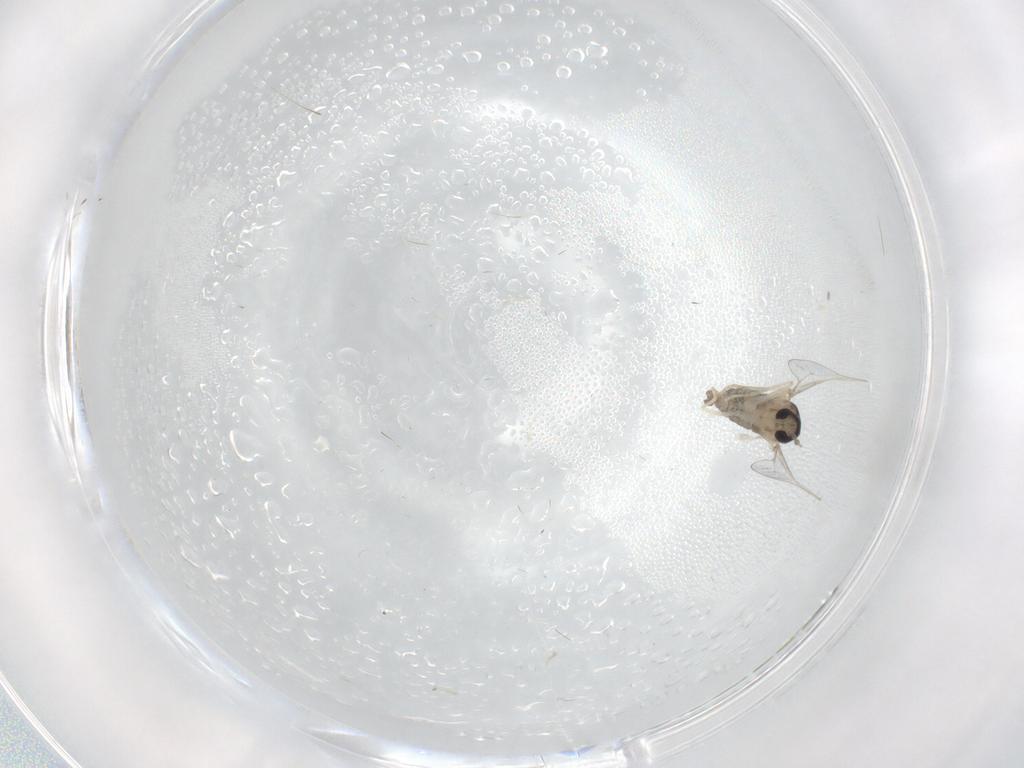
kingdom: Animalia
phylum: Arthropoda
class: Insecta
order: Diptera
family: Cecidomyiidae
